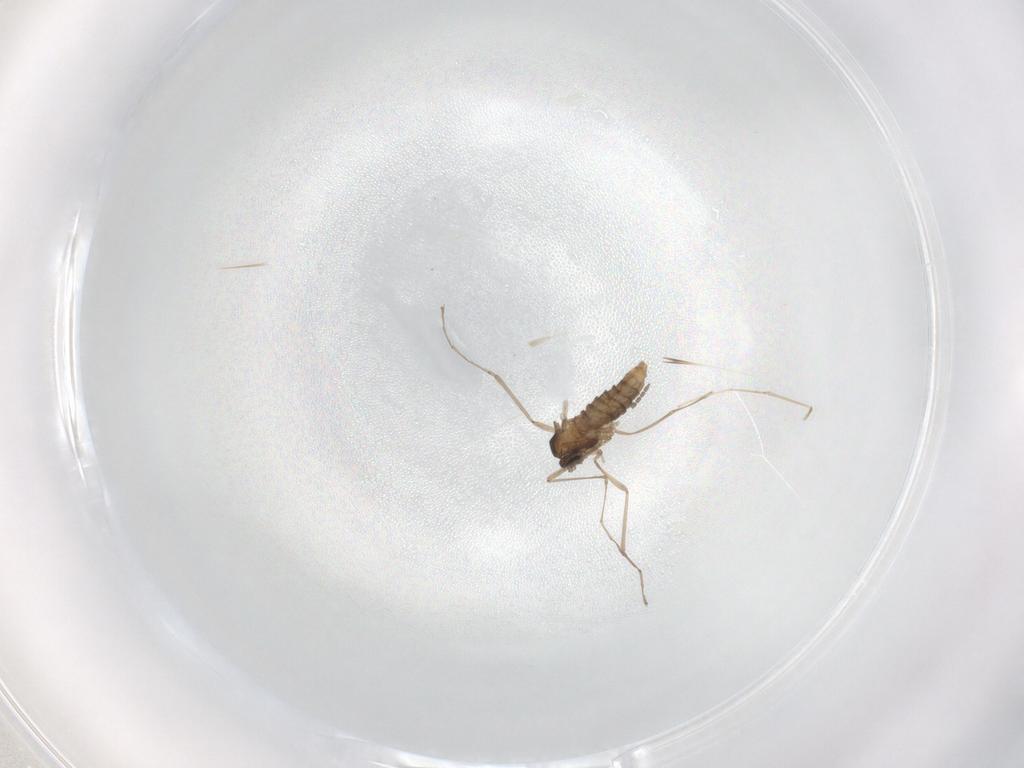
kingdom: Animalia
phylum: Arthropoda
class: Insecta
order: Diptera
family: Cecidomyiidae
